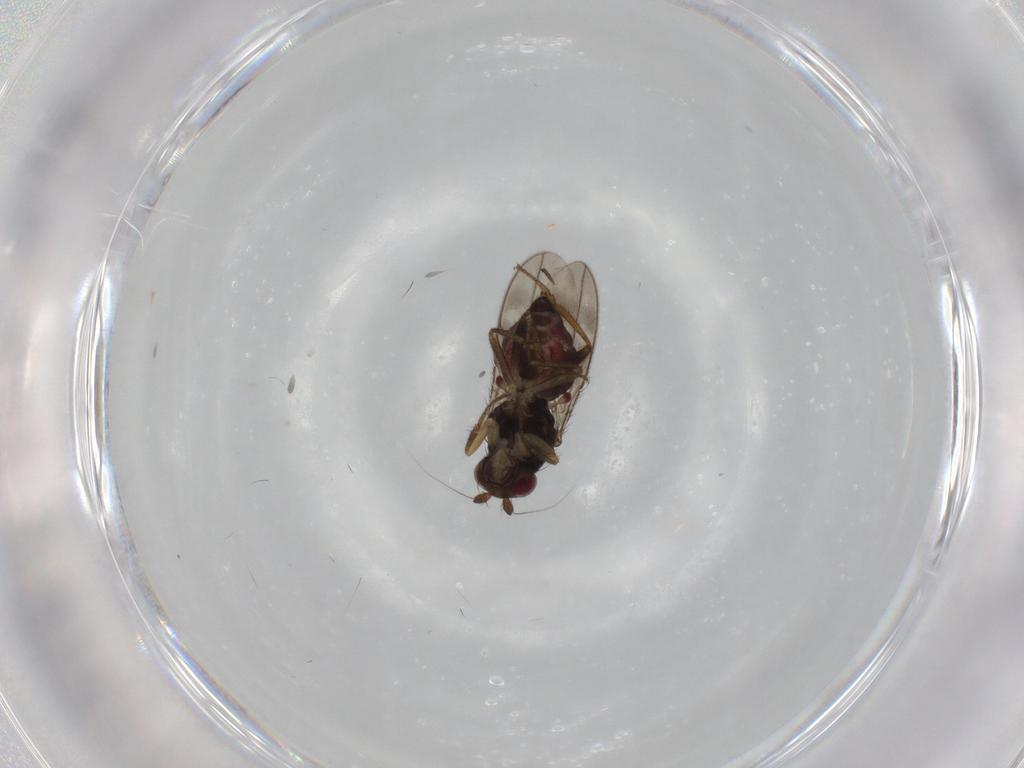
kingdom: Animalia
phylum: Arthropoda
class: Insecta
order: Diptera
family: Sphaeroceridae
